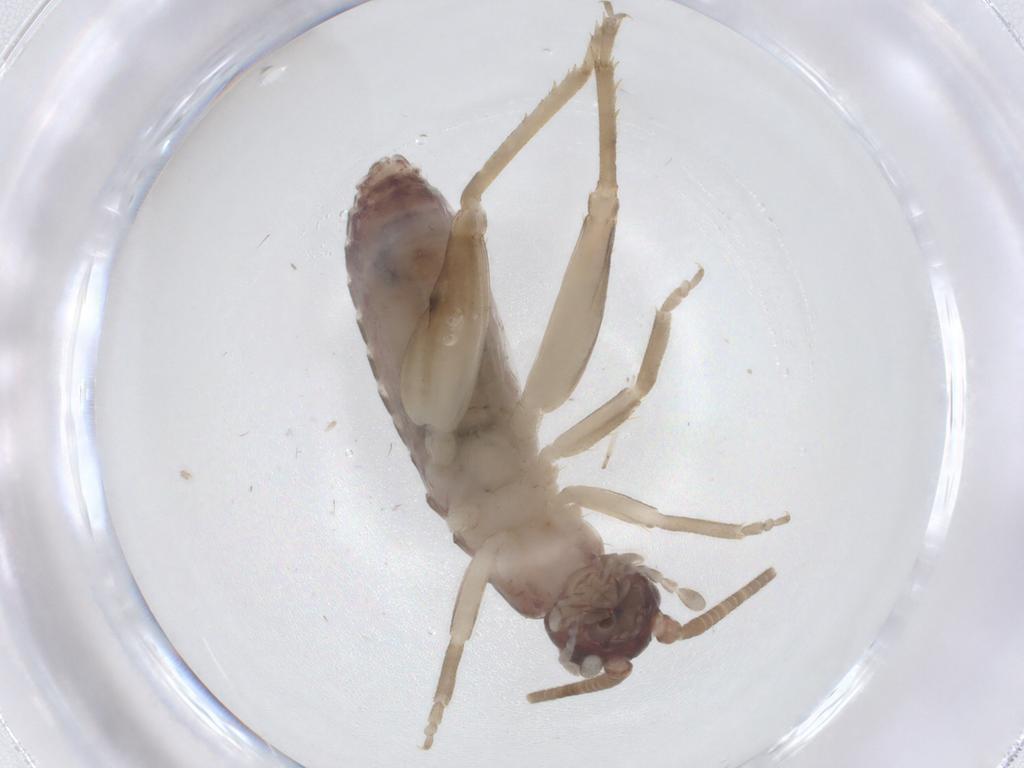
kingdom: Animalia
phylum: Arthropoda
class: Insecta
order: Orthoptera
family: Gryllidae
